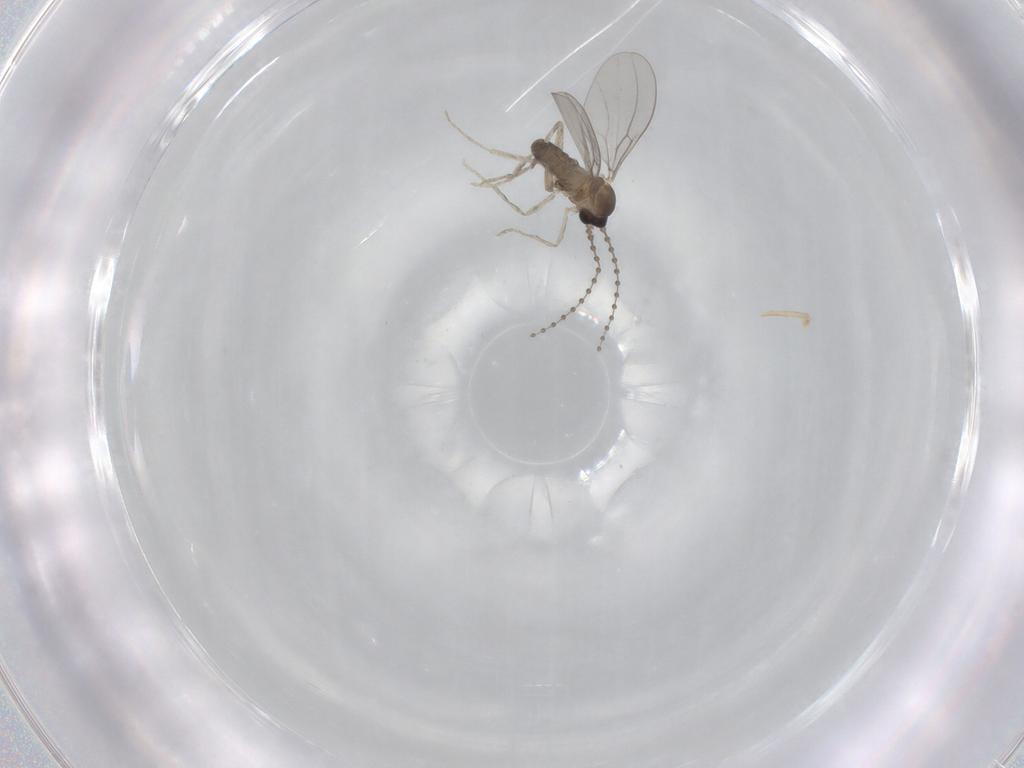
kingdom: Animalia
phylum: Arthropoda
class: Insecta
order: Diptera
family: Cecidomyiidae
